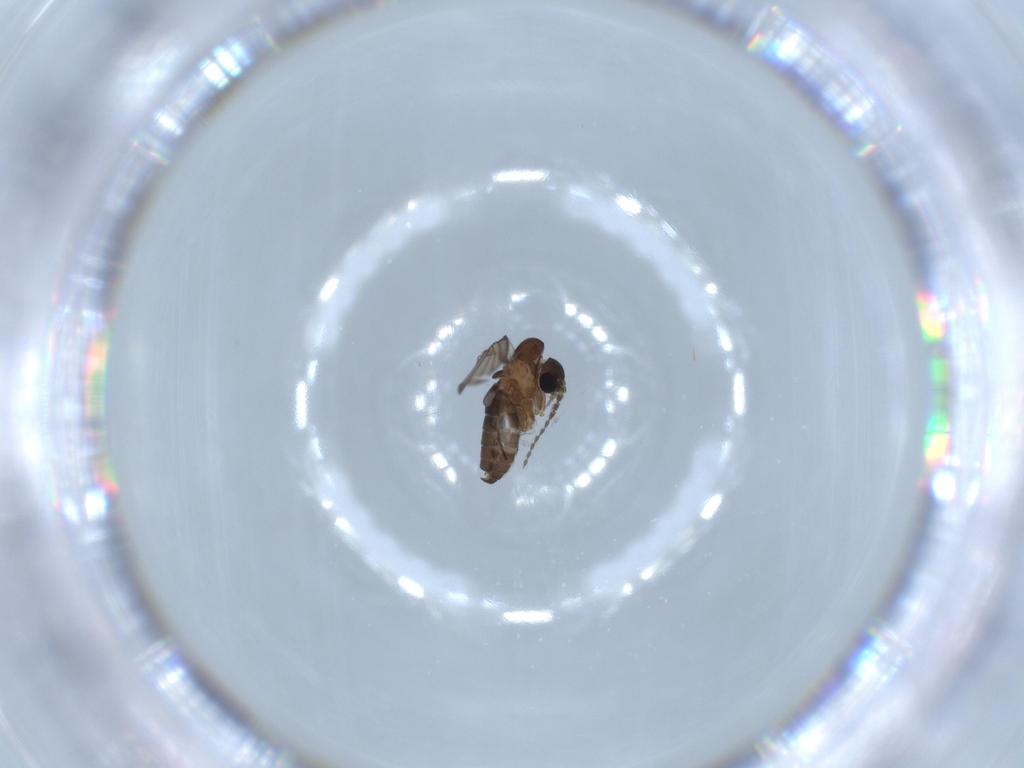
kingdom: Animalia
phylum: Arthropoda
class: Insecta
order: Diptera
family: Psychodidae
